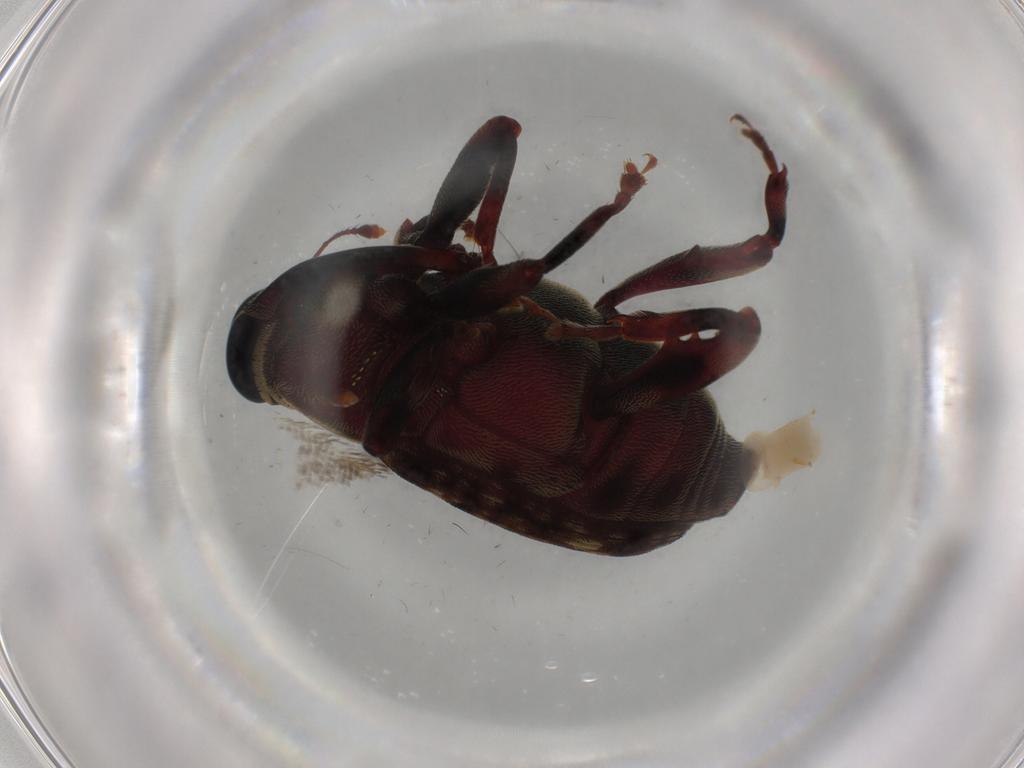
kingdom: Animalia
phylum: Arthropoda
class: Insecta
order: Coleoptera
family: Curculionidae
